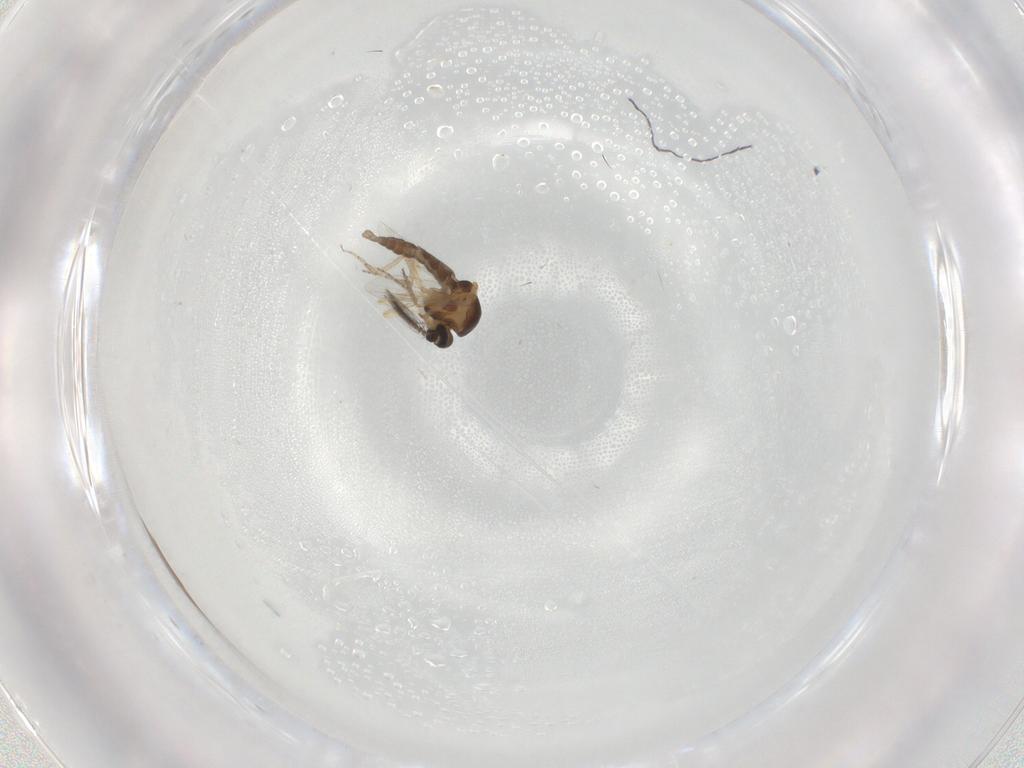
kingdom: Animalia
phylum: Arthropoda
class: Insecta
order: Diptera
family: Ceratopogonidae
